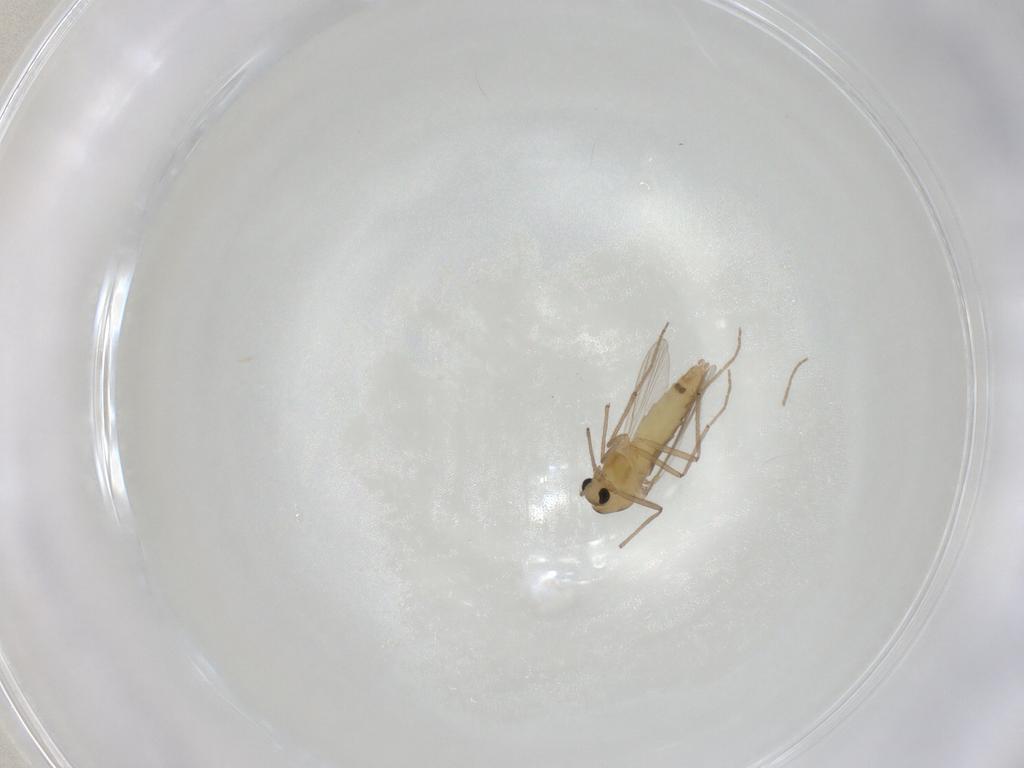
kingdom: Animalia
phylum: Arthropoda
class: Insecta
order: Diptera
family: Chironomidae
